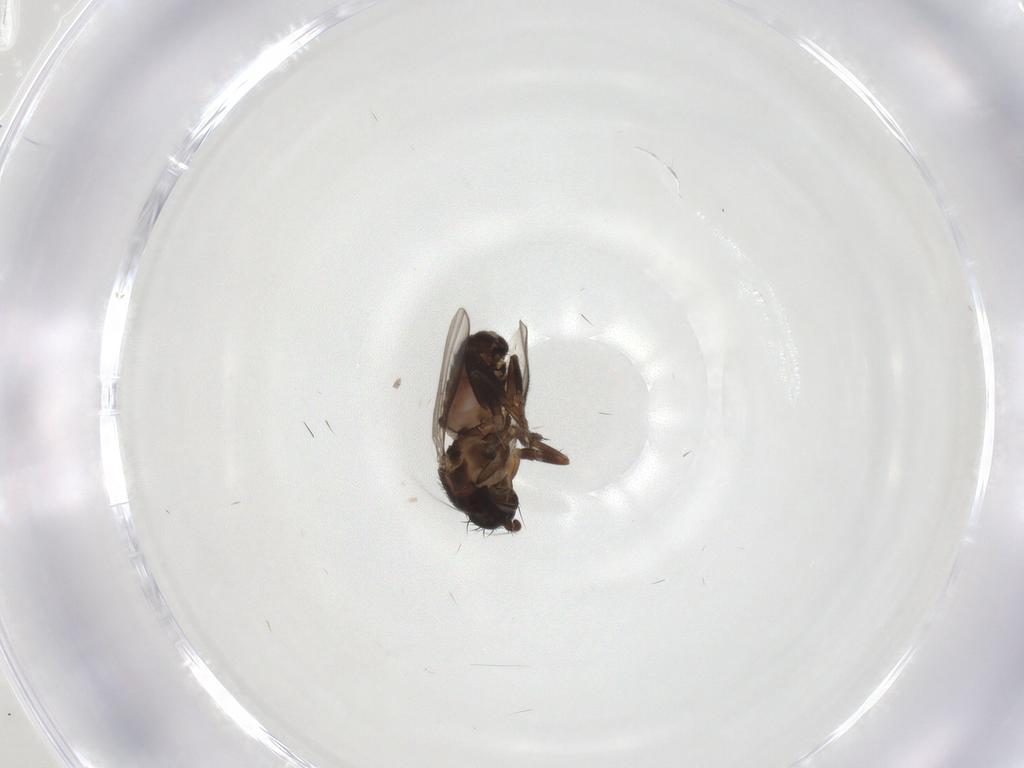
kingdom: Animalia
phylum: Arthropoda
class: Insecta
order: Diptera
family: Sphaeroceridae
